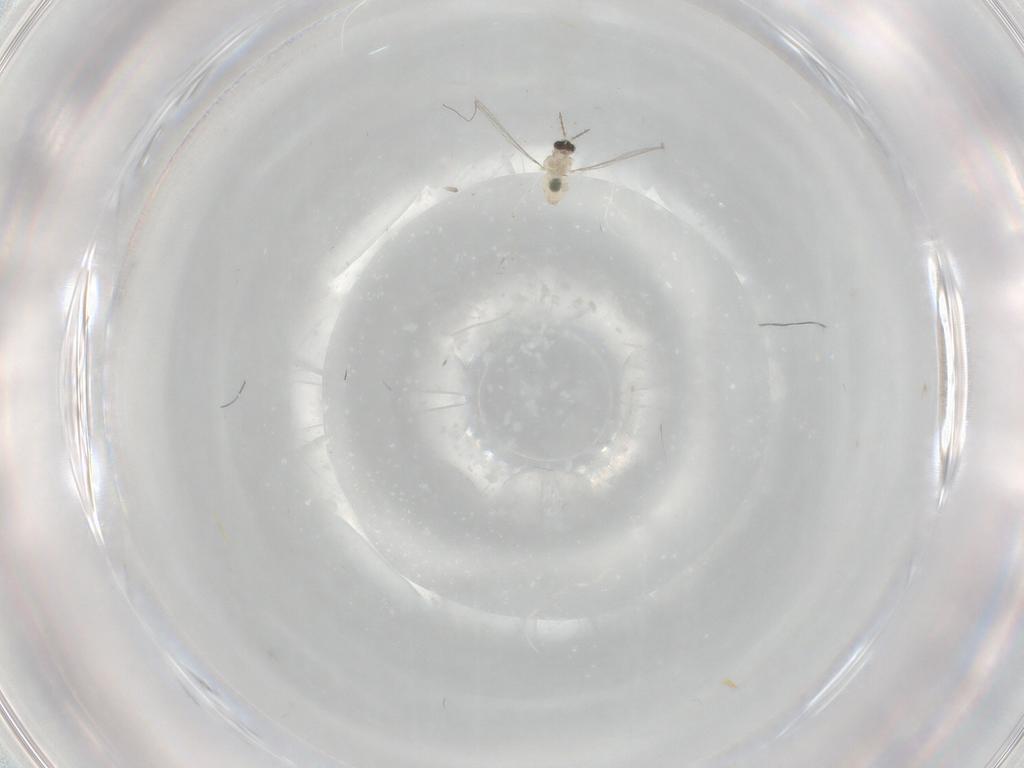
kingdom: Animalia
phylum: Arthropoda
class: Insecta
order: Diptera
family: Cecidomyiidae
